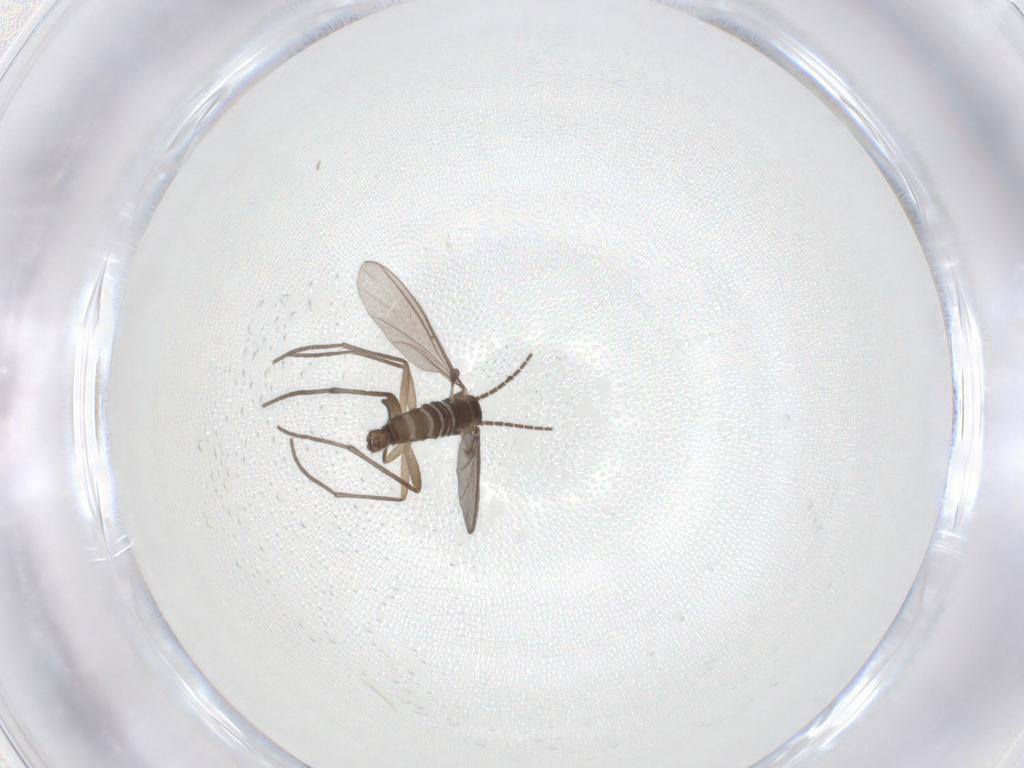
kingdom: Animalia
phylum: Arthropoda
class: Insecta
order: Diptera
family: Sciaridae
